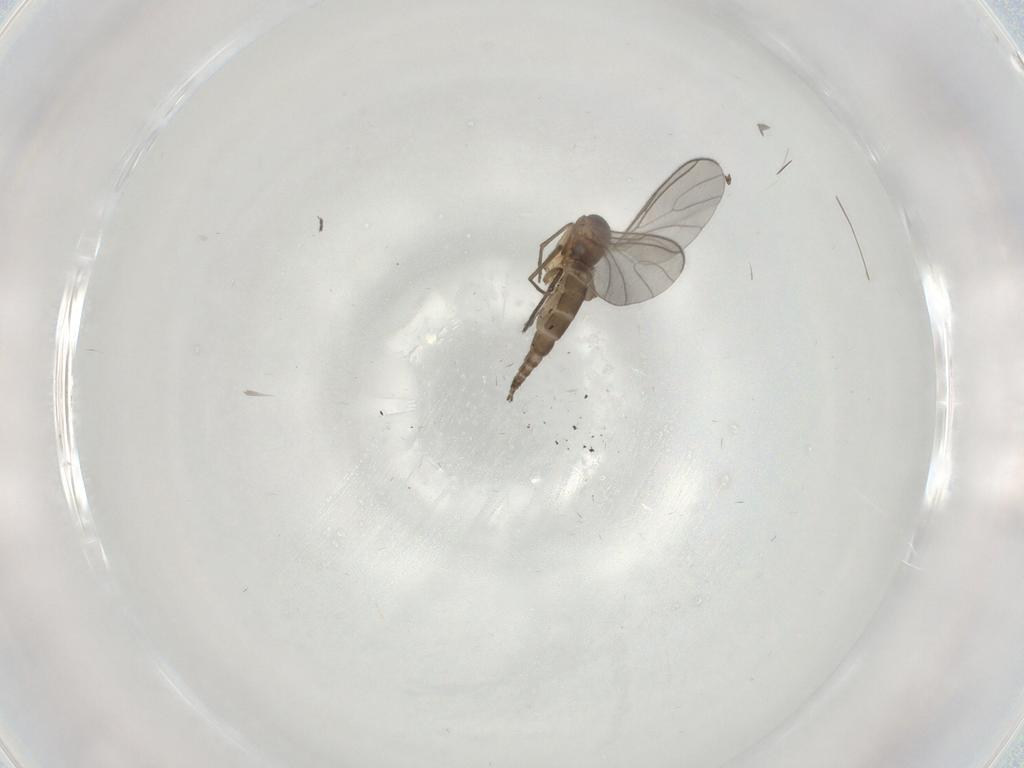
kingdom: Animalia
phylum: Arthropoda
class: Insecta
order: Diptera
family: Sciaridae
